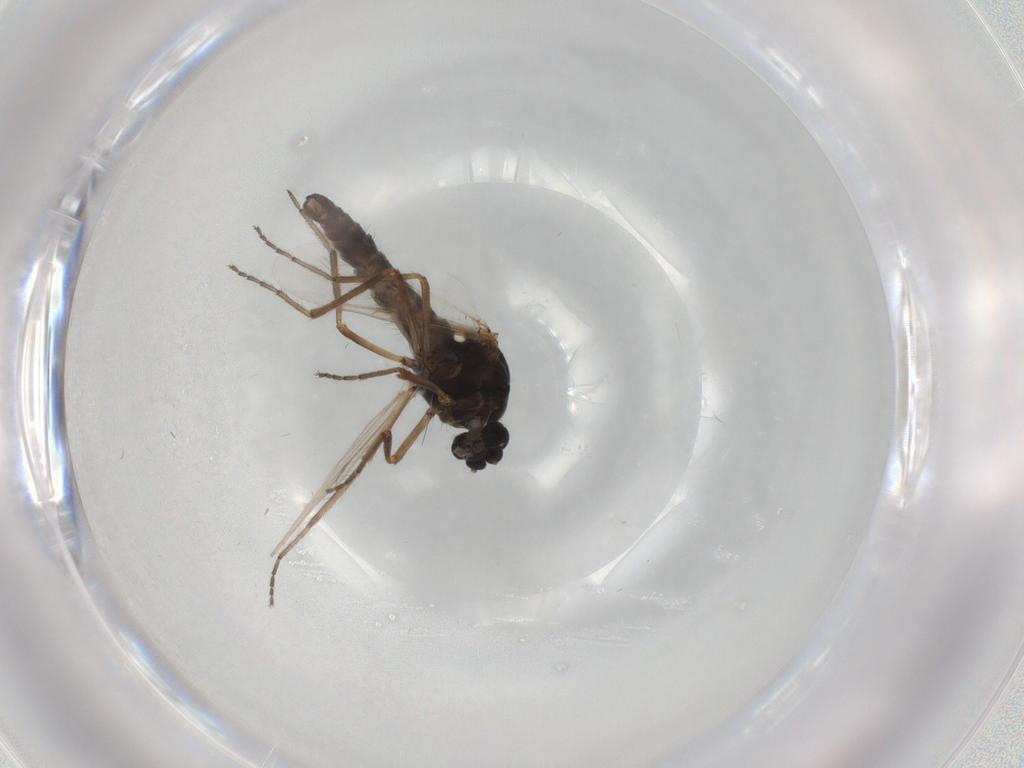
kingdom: Animalia
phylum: Arthropoda
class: Insecta
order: Diptera
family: Ceratopogonidae
